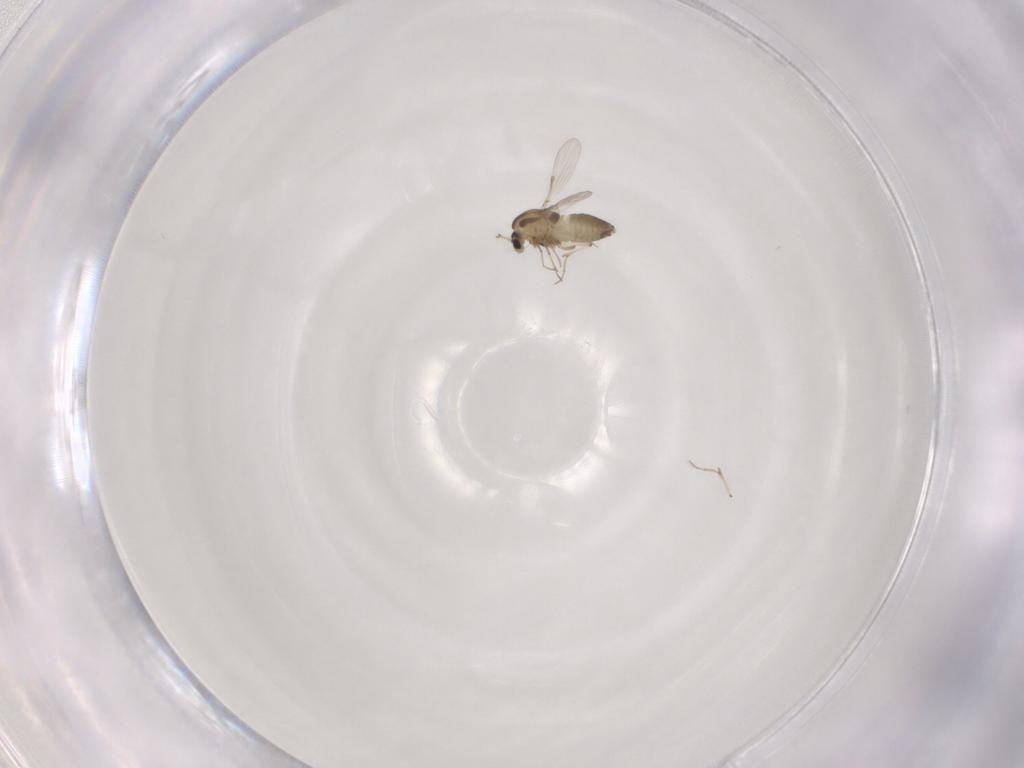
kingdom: Animalia
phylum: Arthropoda
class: Insecta
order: Diptera
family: Chironomidae
